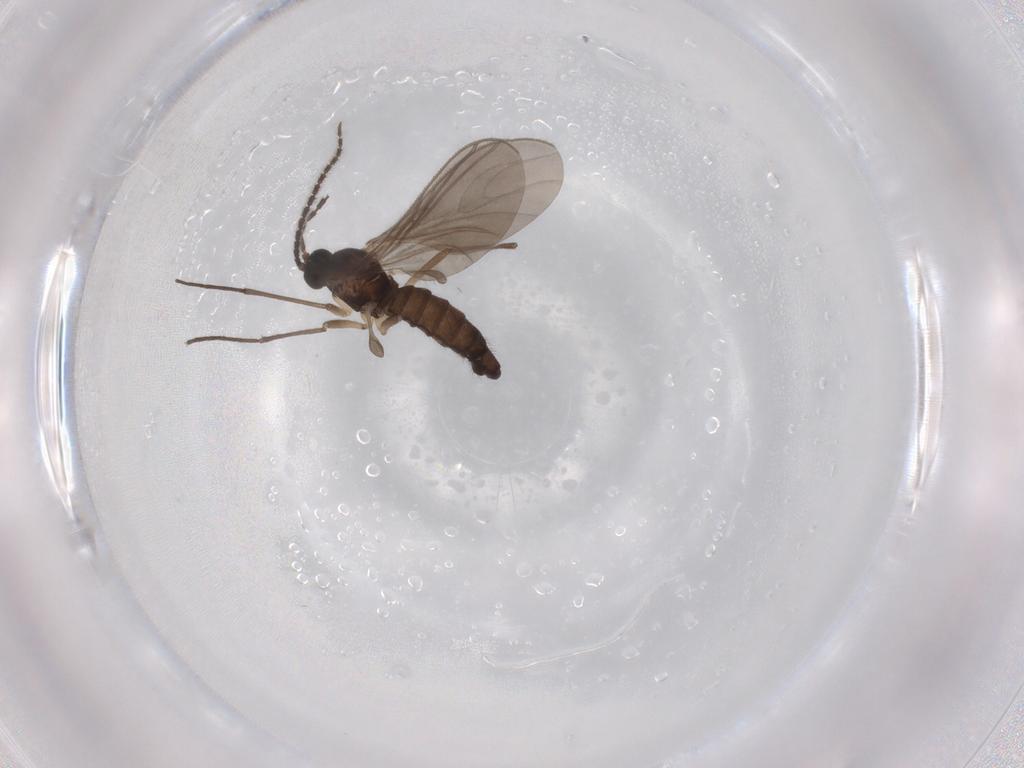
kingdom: Animalia
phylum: Arthropoda
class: Insecta
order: Diptera
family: Sciaridae
